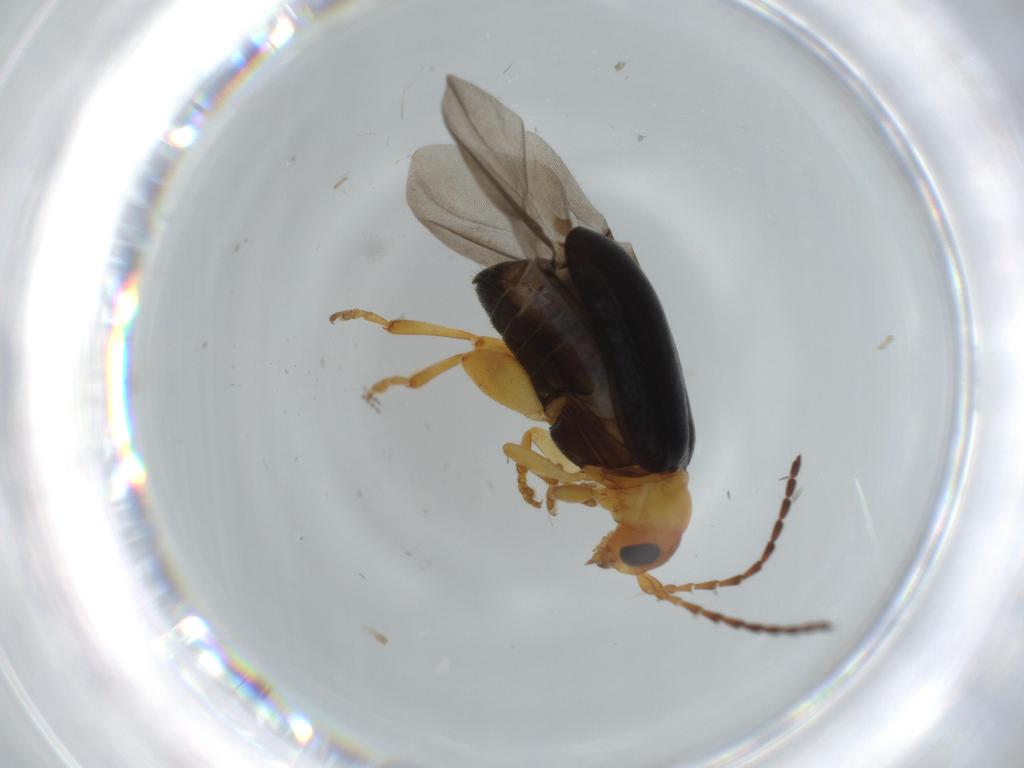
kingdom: Animalia
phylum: Arthropoda
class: Insecta
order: Coleoptera
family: Chrysomelidae
